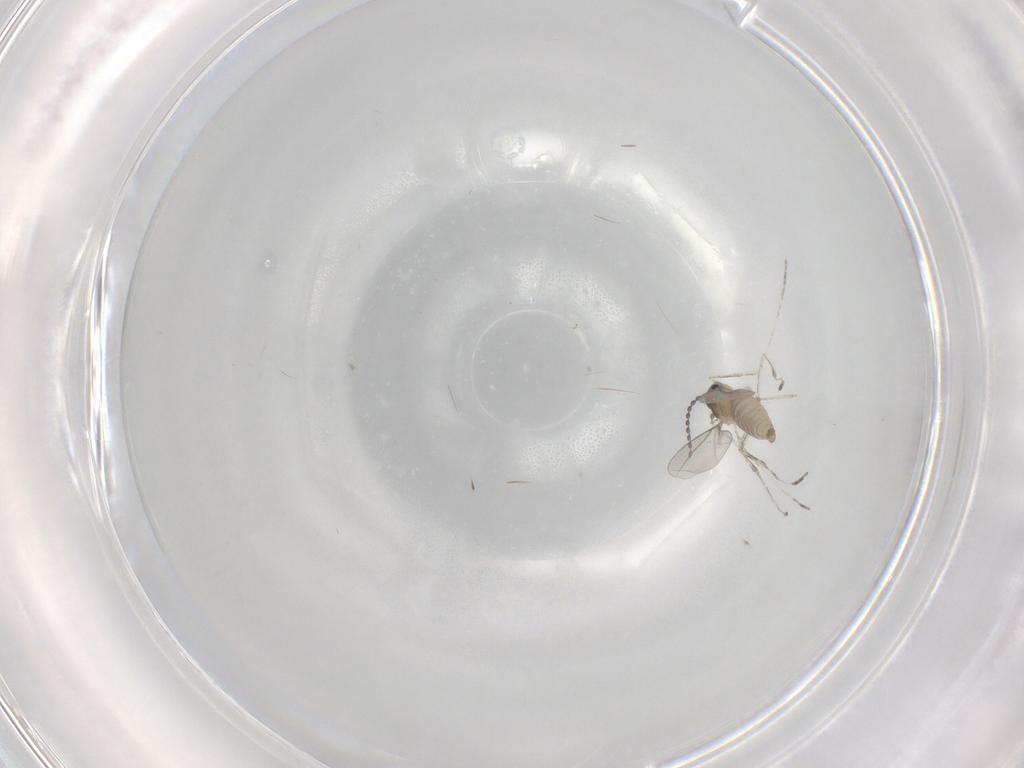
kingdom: Animalia
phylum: Arthropoda
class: Insecta
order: Diptera
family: Cecidomyiidae
